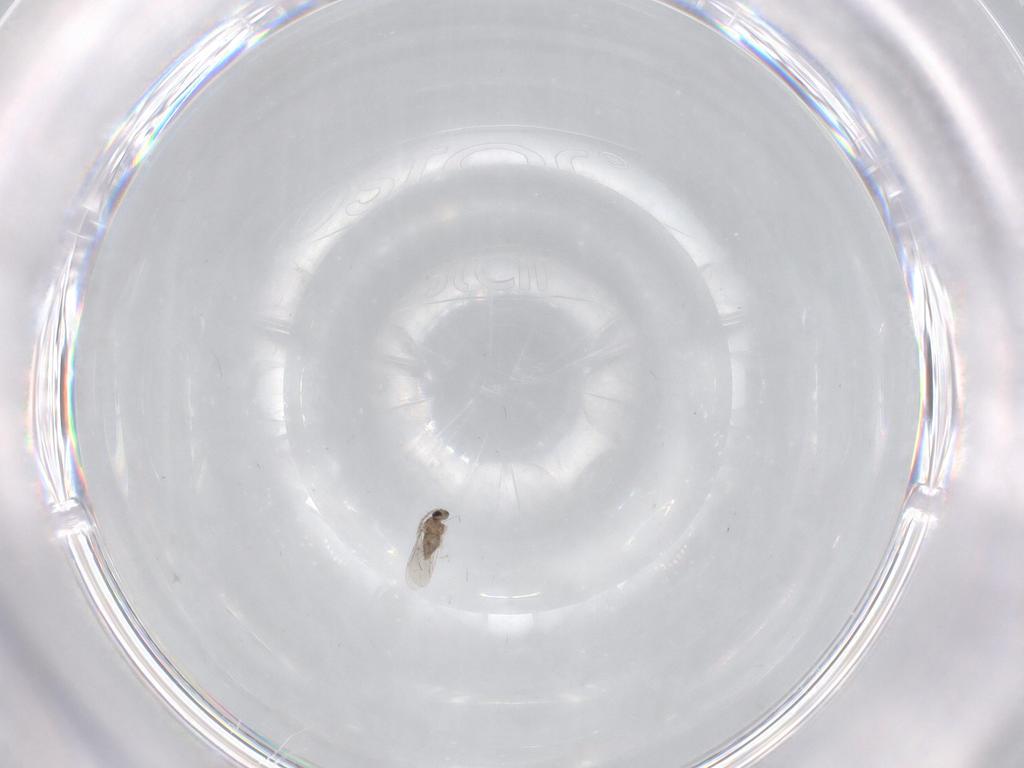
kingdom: Animalia
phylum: Arthropoda
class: Insecta
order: Diptera
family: Cecidomyiidae
